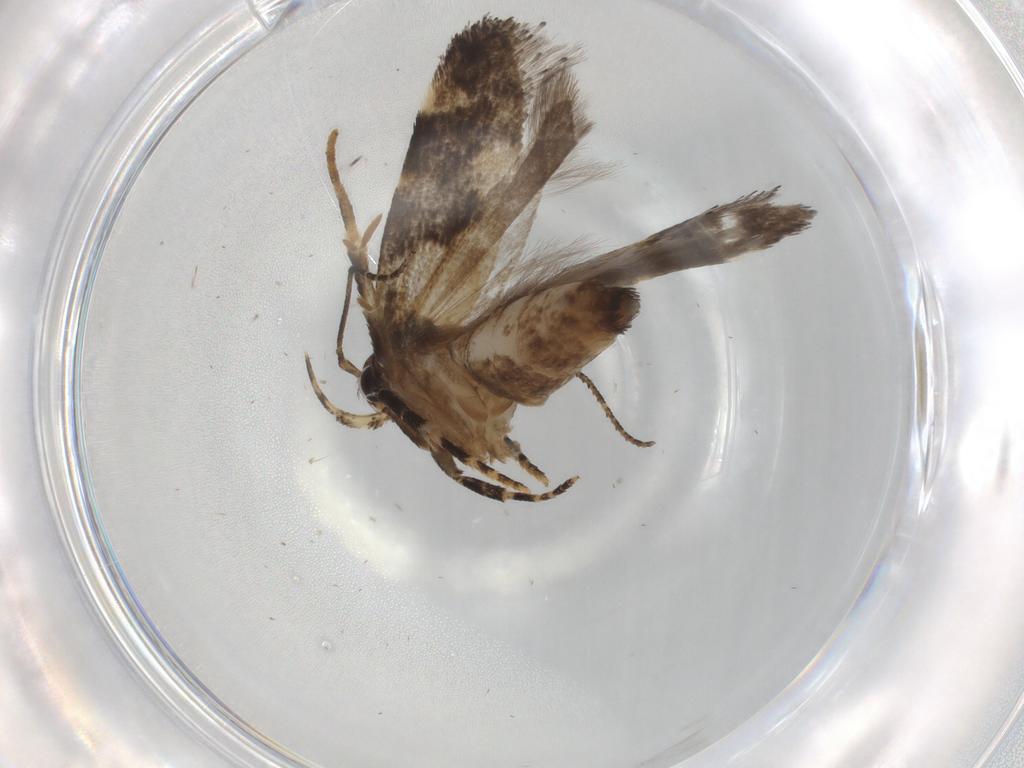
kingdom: Animalia
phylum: Arthropoda
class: Insecta
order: Lepidoptera
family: Gelechiidae
